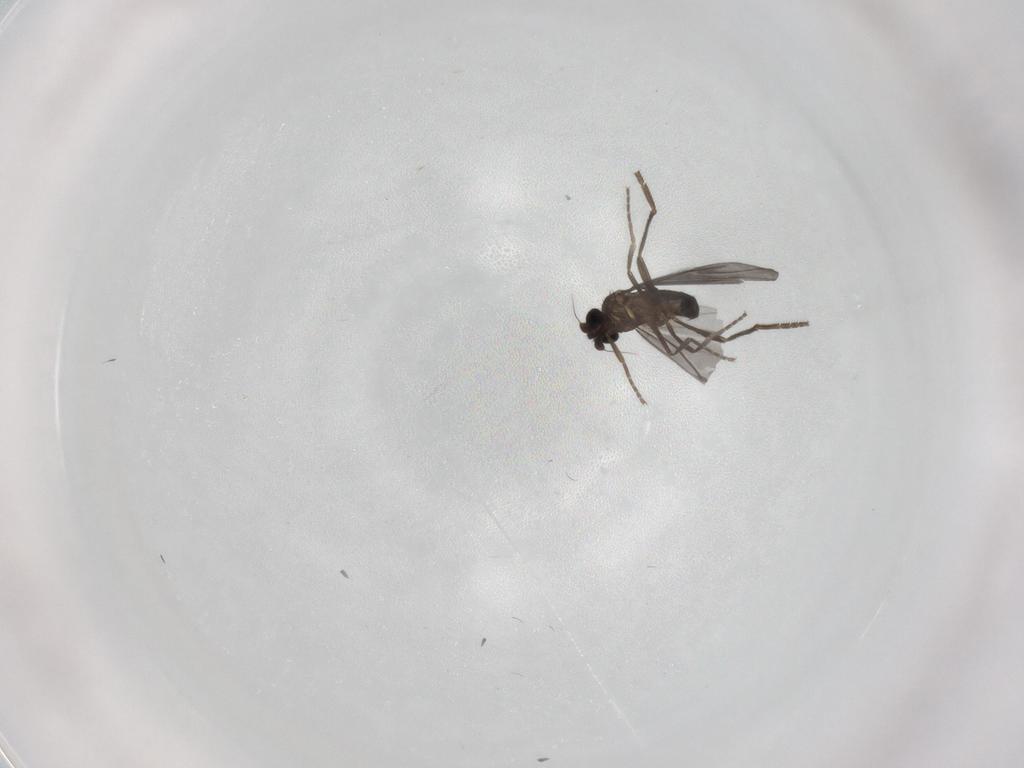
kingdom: Animalia
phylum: Arthropoda
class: Insecta
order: Diptera
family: Phoridae
